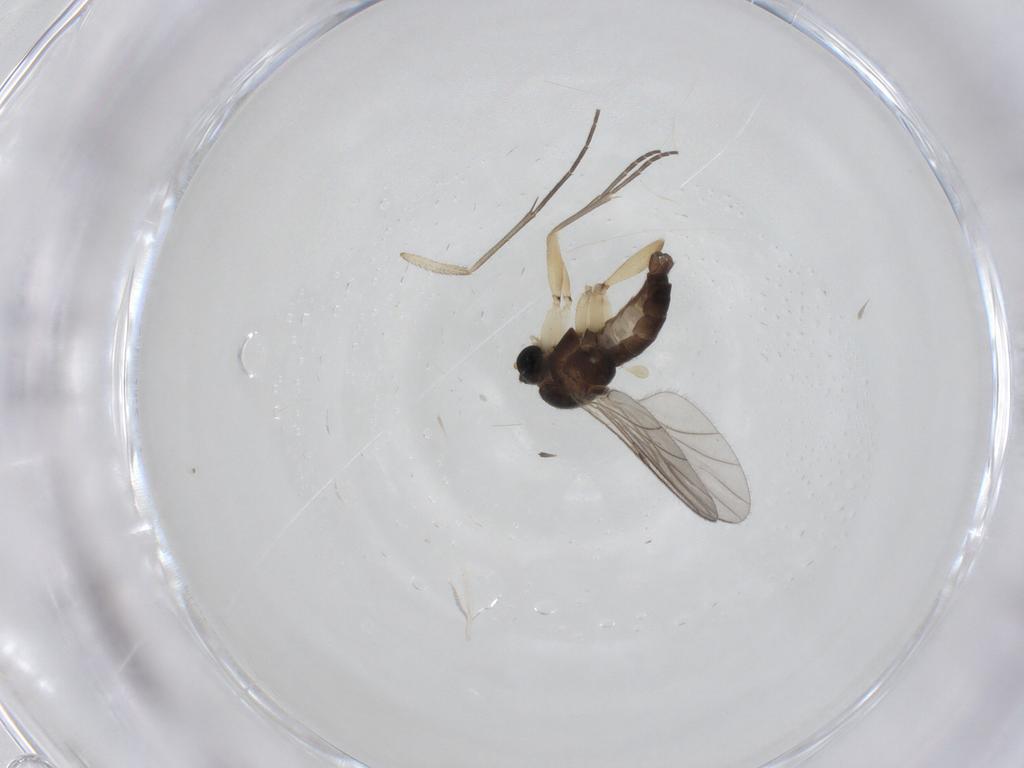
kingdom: Animalia
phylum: Arthropoda
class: Insecta
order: Diptera
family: Sciaridae
